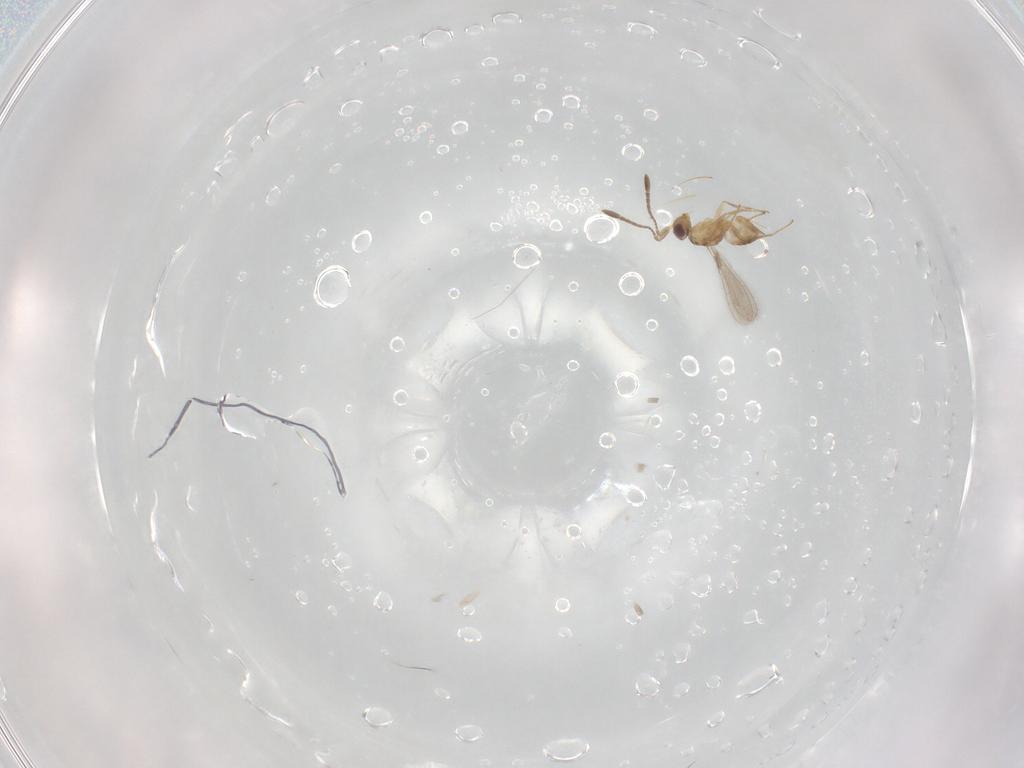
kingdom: Animalia
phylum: Arthropoda
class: Insecta
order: Hymenoptera
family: Mymaridae
